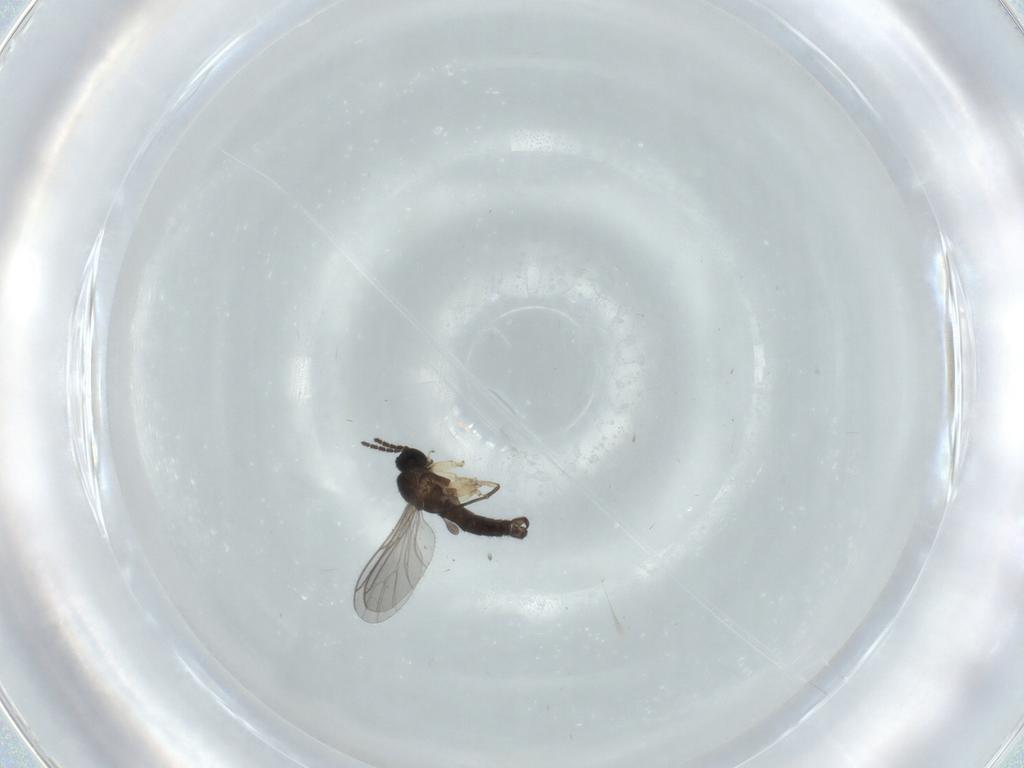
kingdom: Animalia
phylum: Arthropoda
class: Insecta
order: Diptera
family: Sciaridae
